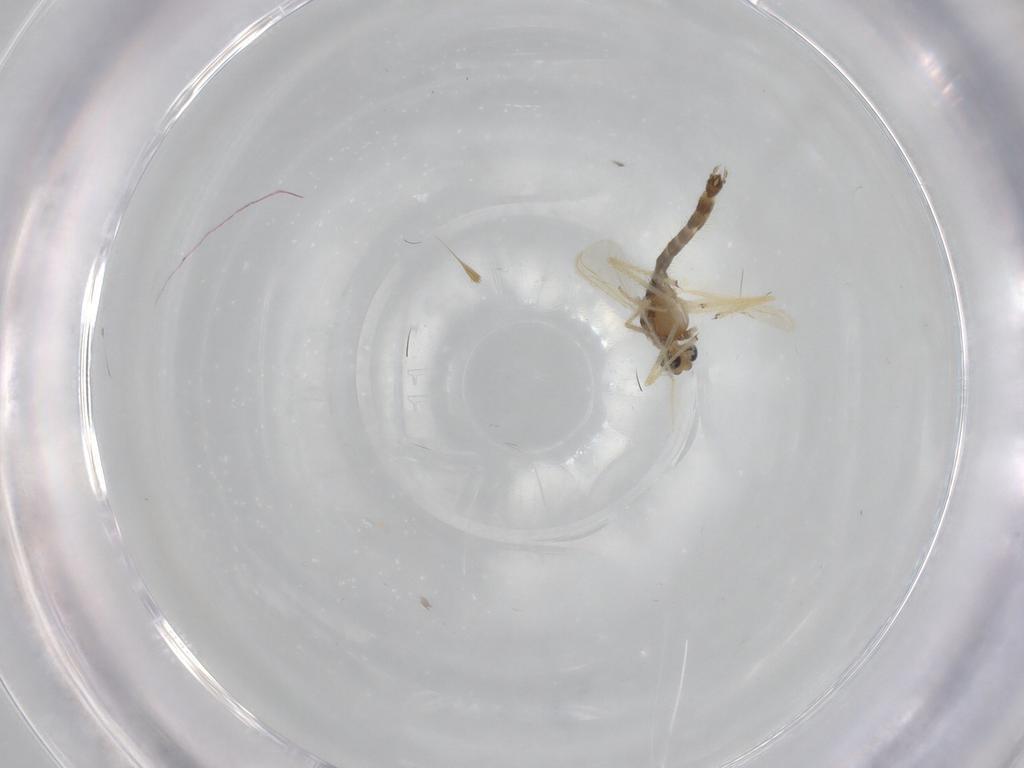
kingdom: Animalia
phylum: Arthropoda
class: Insecta
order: Diptera
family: Chironomidae
